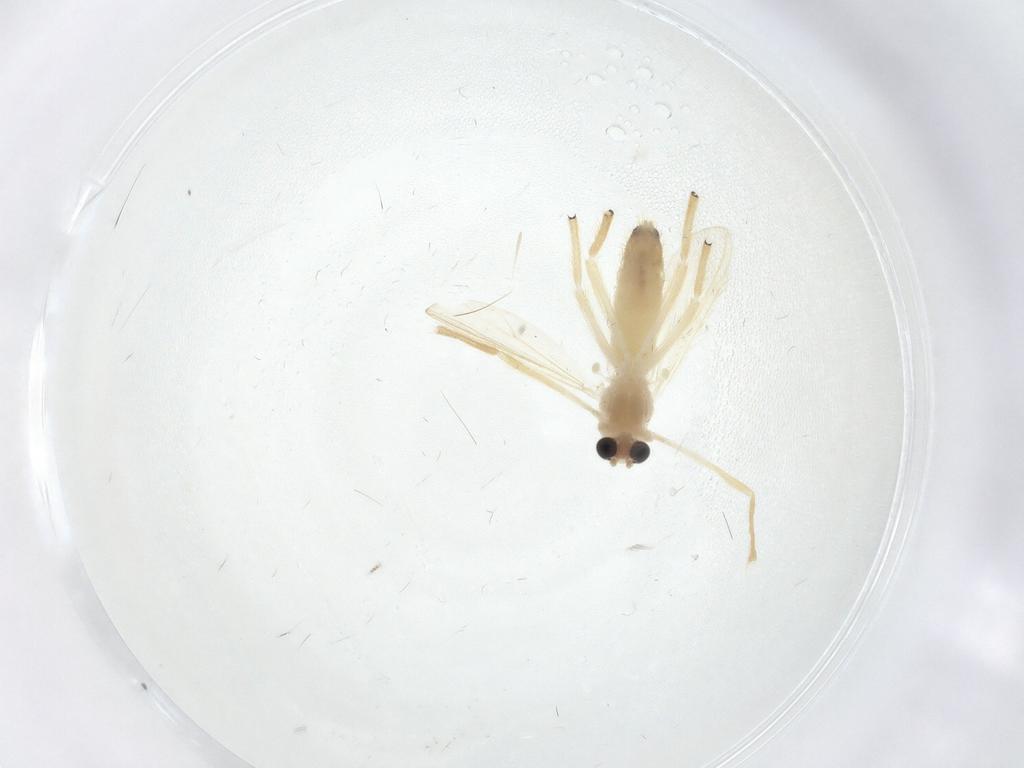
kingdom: Animalia
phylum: Arthropoda
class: Insecta
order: Diptera
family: Chironomidae
